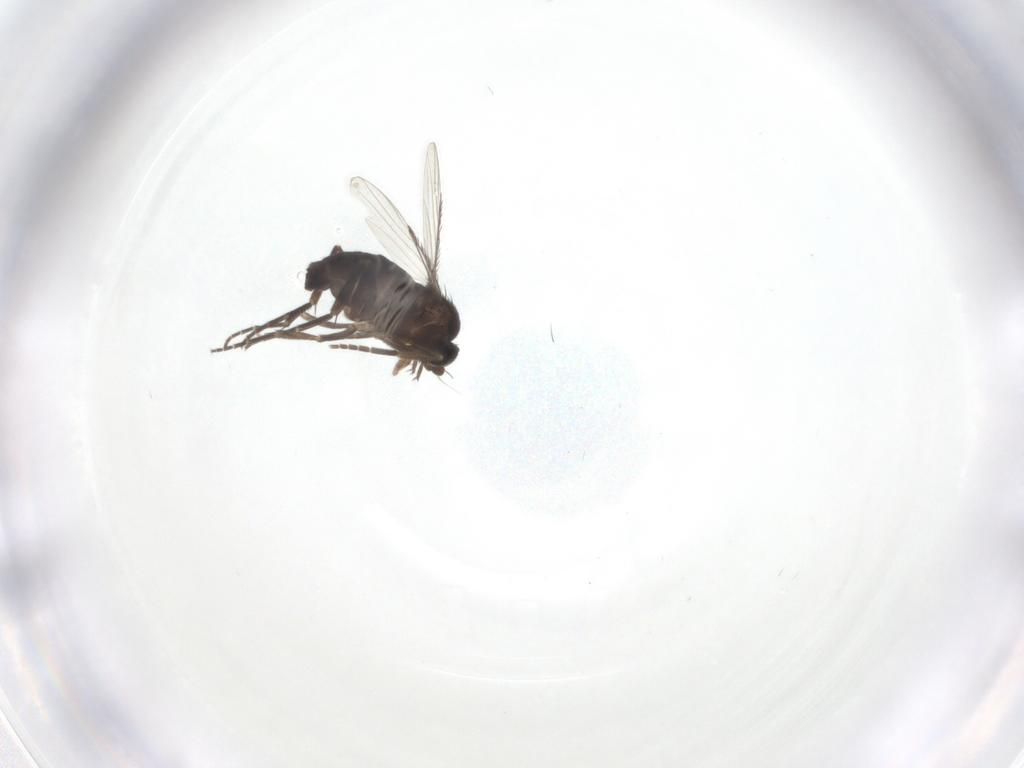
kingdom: Animalia
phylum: Arthropoda
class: Insecta
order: Diptera
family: Phoridae
